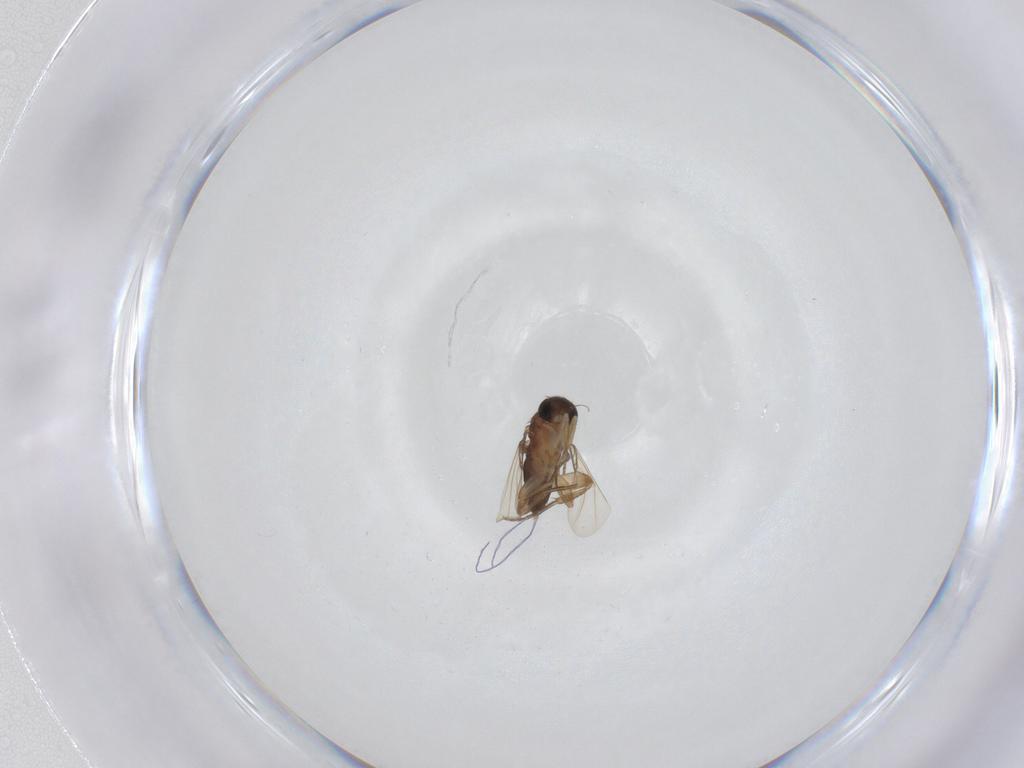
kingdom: Animalia
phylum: Arthropoda
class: Insecta
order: Diptera
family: Phoridae
